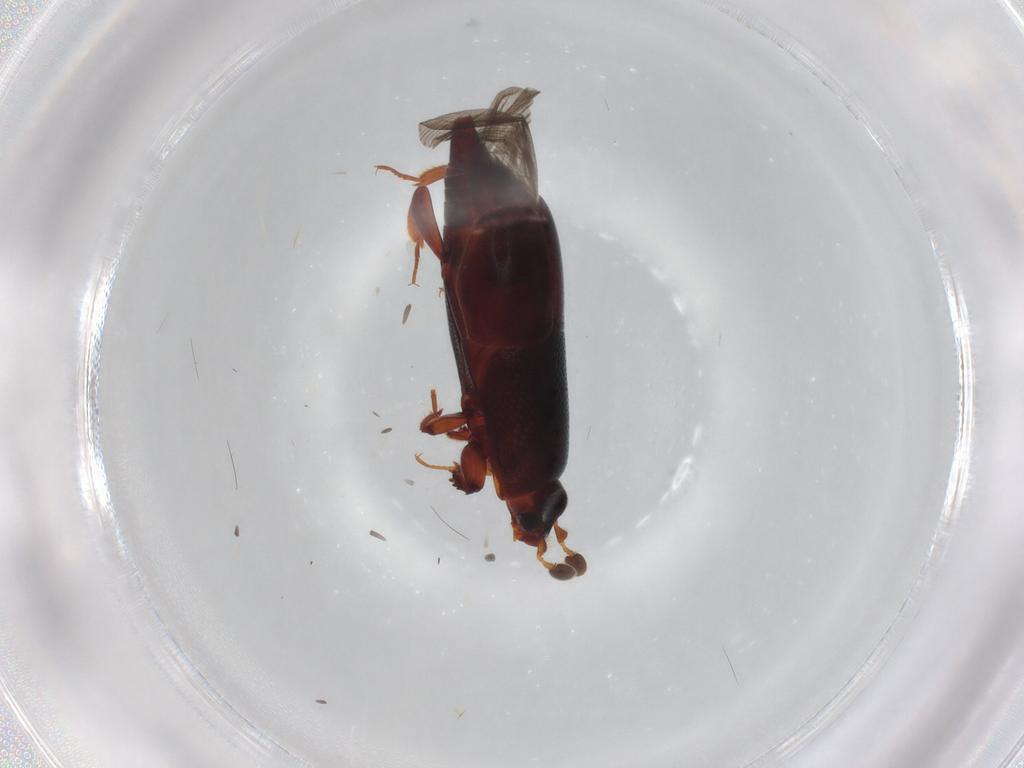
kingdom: Animalia
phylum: Arthropoda
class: Insecta
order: Coleoptera
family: Histeridae
